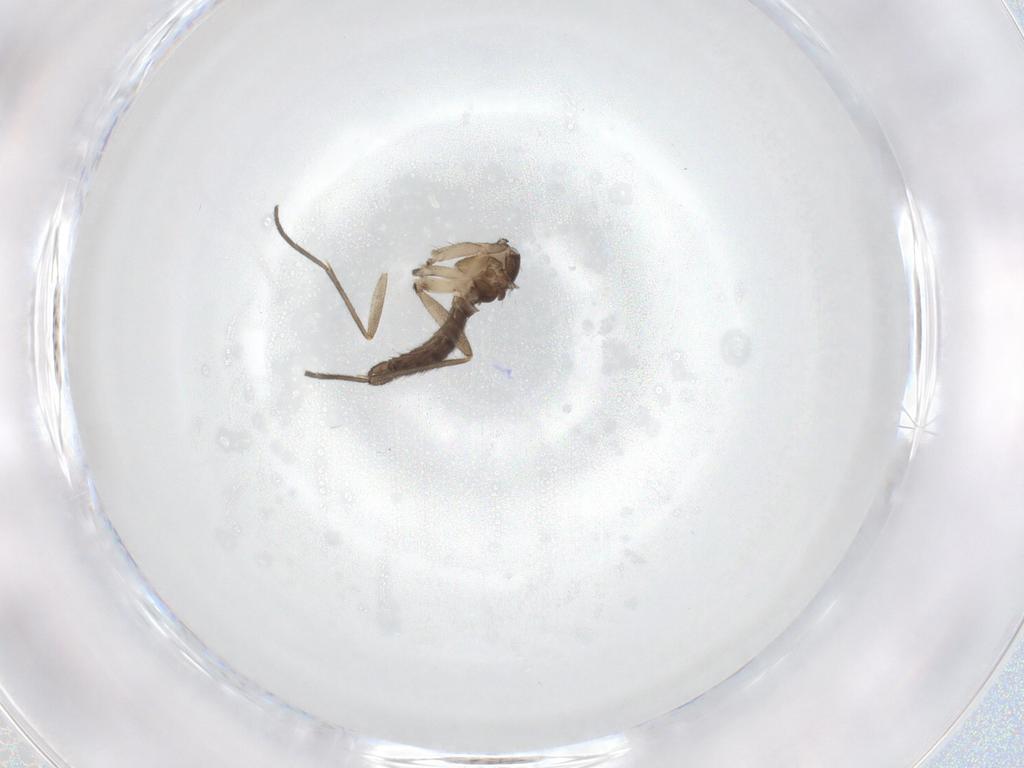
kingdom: Animalia
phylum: Arthropoda
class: Insecta
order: Diptera
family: Sciaridae
